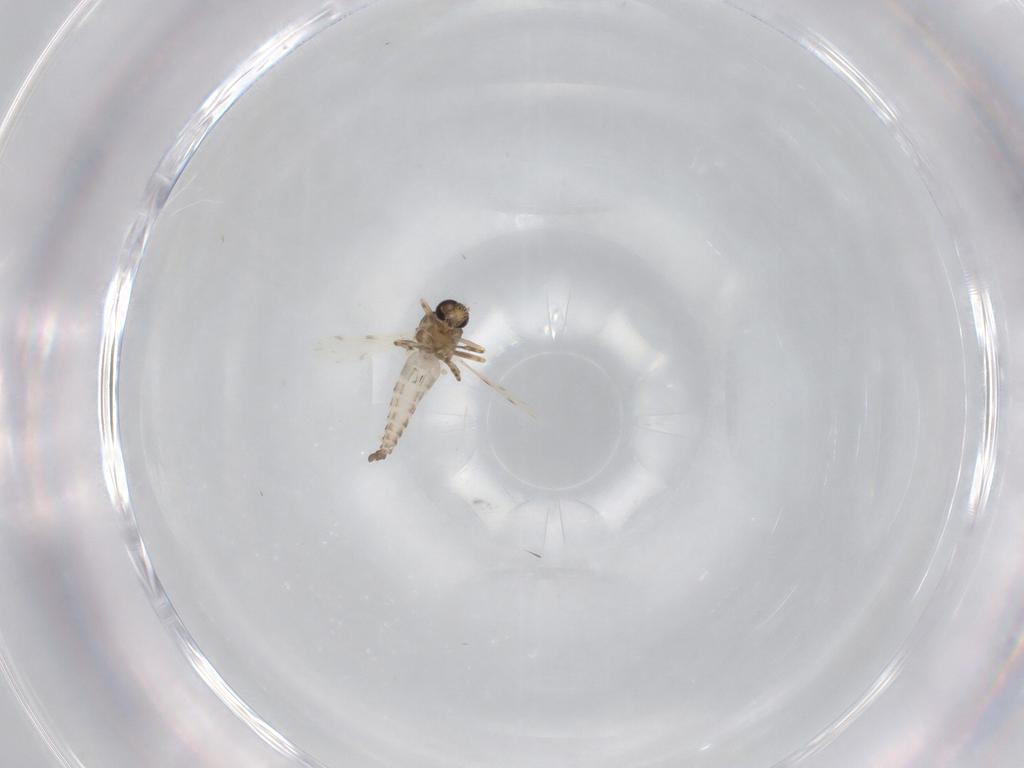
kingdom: Animalia
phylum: Arthropoda
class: Insecta
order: Diptera
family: Ceratopogonidae
